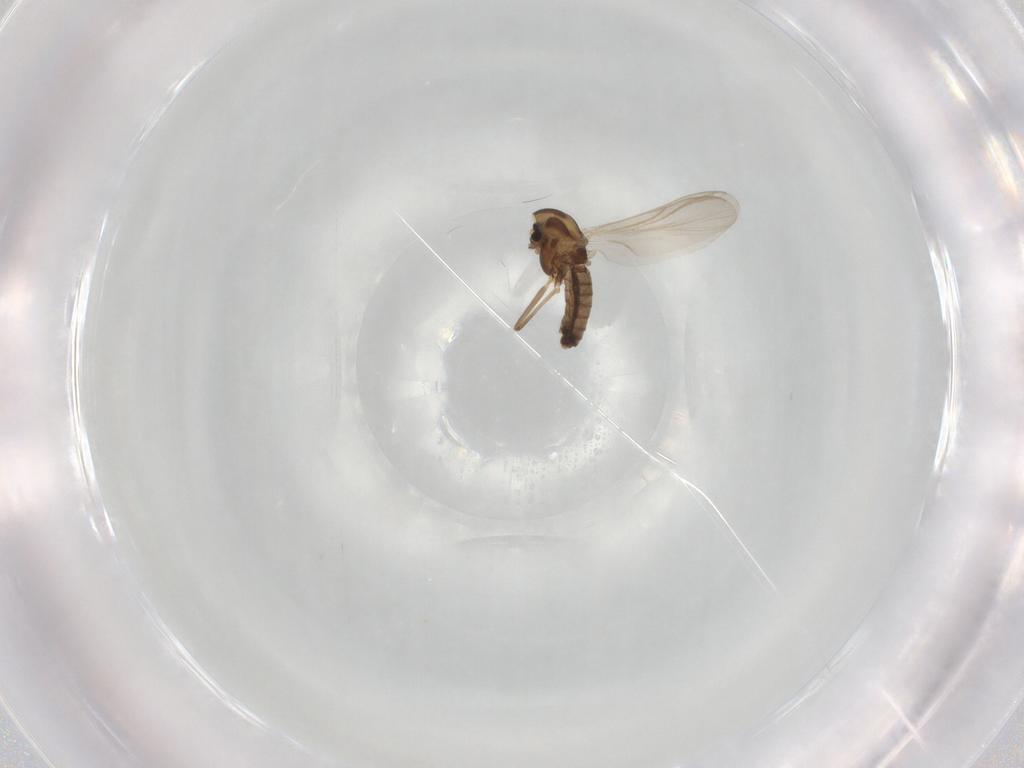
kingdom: Animalia
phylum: Arthropoda
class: Insecta
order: Diptera
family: Chironomidae
